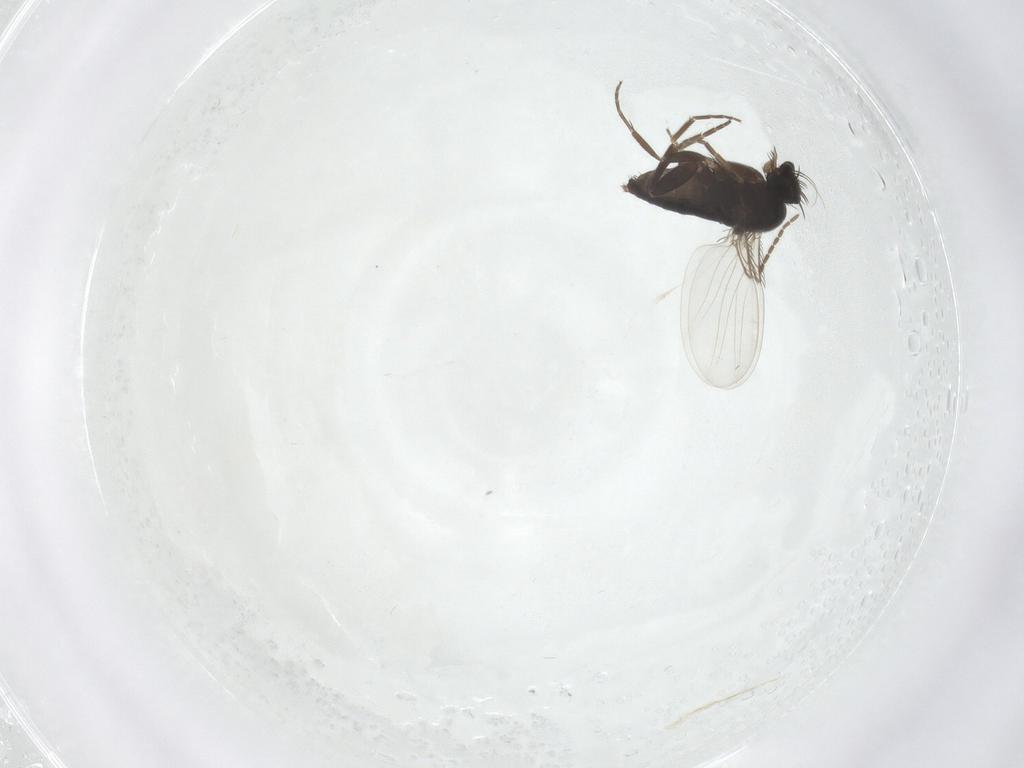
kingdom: Animalia
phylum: Arthropoda
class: Insecta
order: Diptera
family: Phoridae
